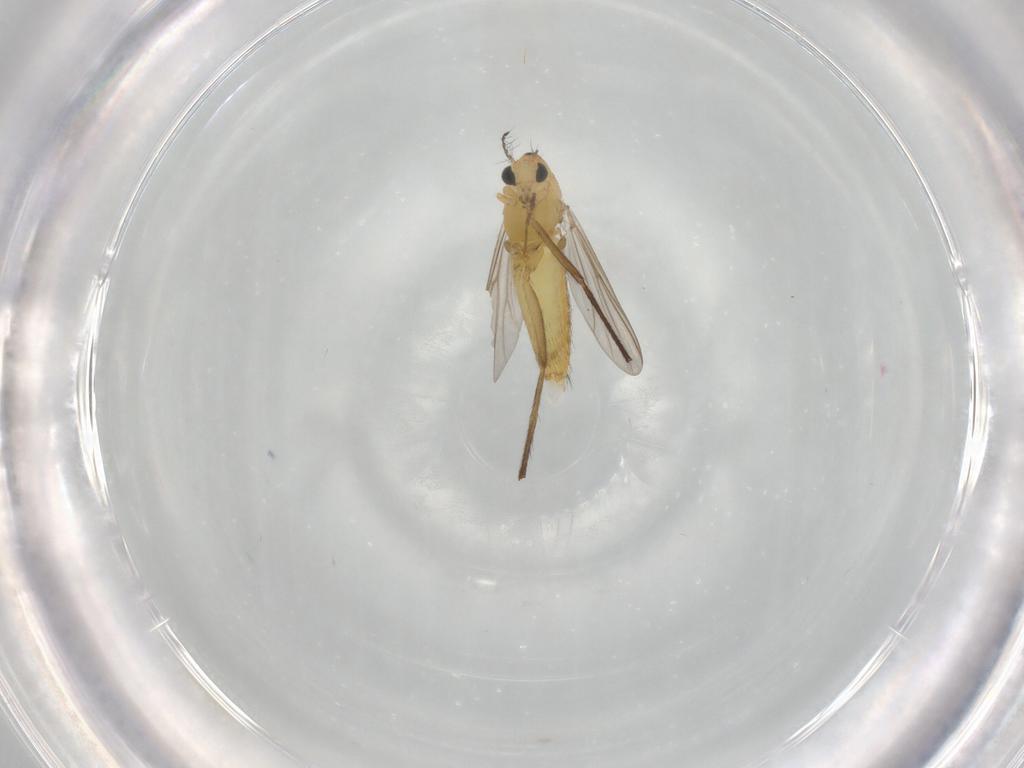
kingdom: Animalia
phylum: Arthropoda
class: Insecta
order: Diptera
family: Chironomidae
